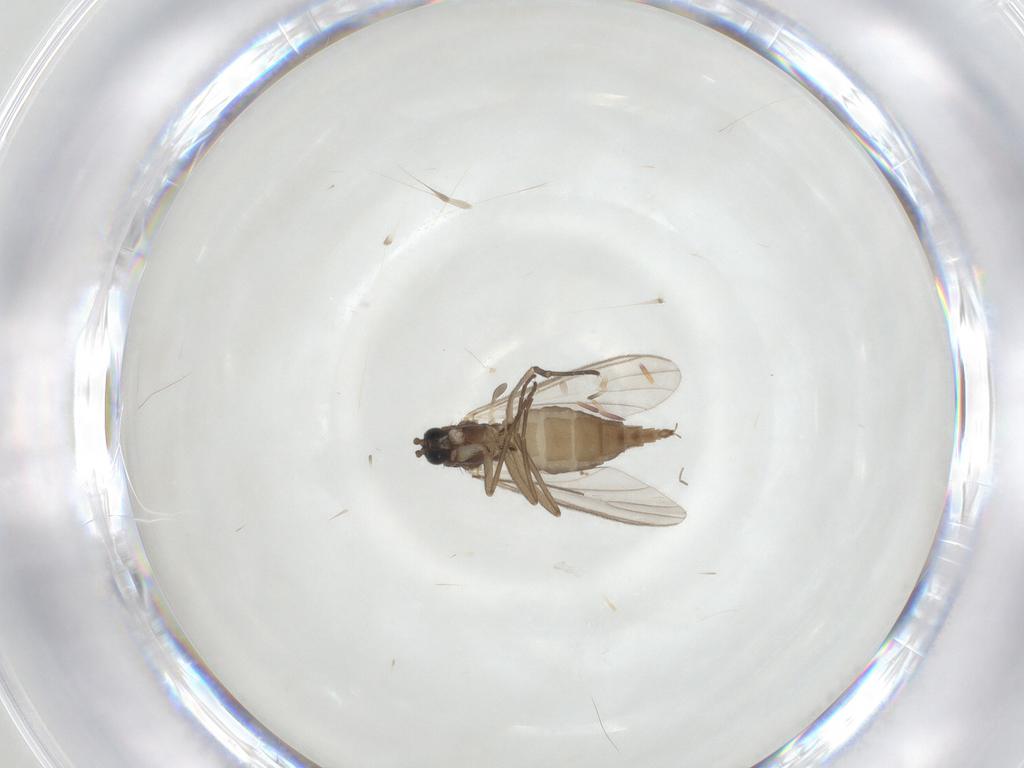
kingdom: Animalia
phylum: Arthropoda
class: Insecta
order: Diptera
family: Sciaridae
